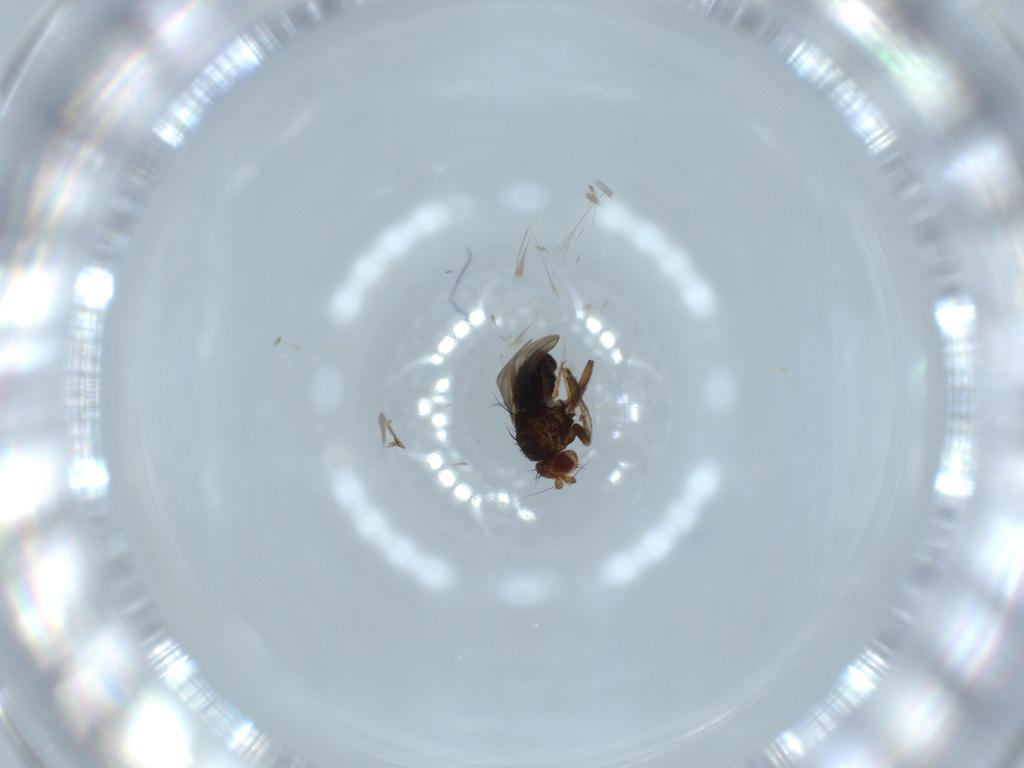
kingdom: Animalia
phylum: Arthropoda
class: Insecta
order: Diptera
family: Sphaeroceridae
